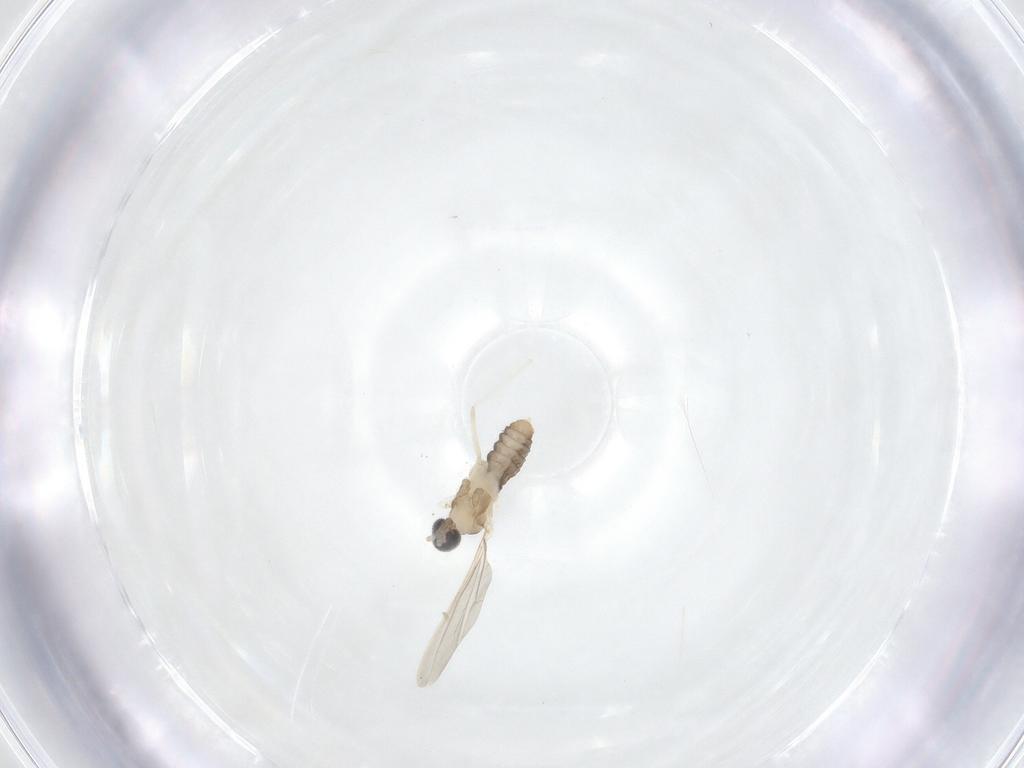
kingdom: Animalia
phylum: Arthropoda
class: Insecta
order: Diptera
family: Cecidomyiidae
